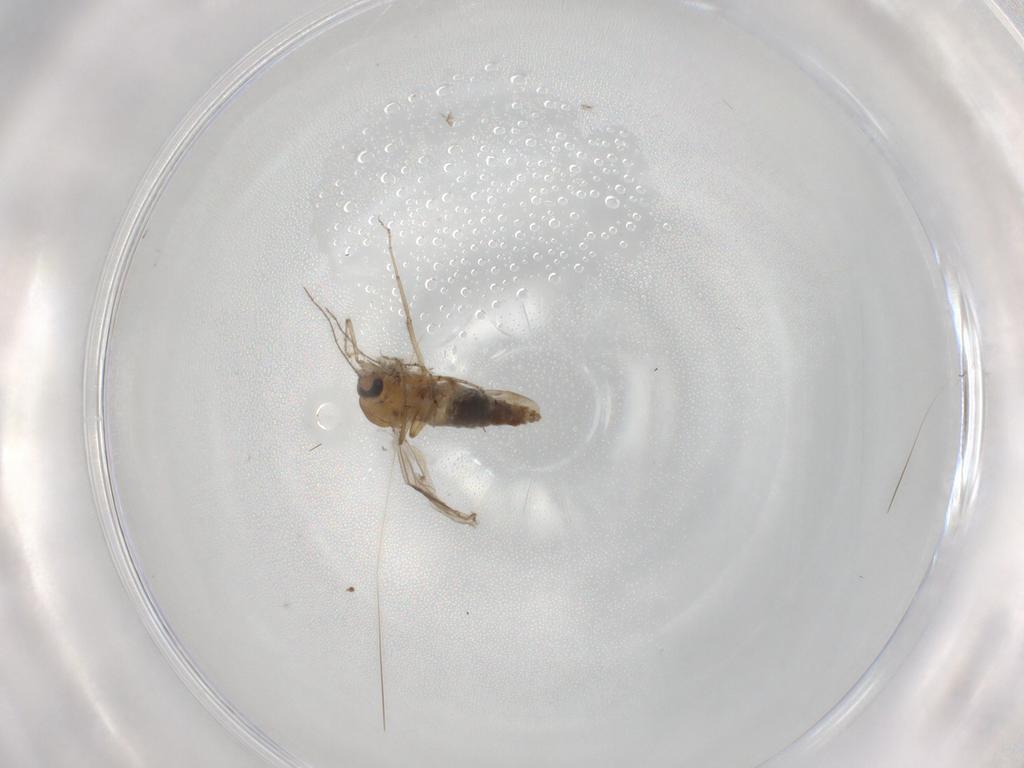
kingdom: Animalia
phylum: Arthropoda
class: Insecta
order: Diptera
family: Ceratopogonidae
